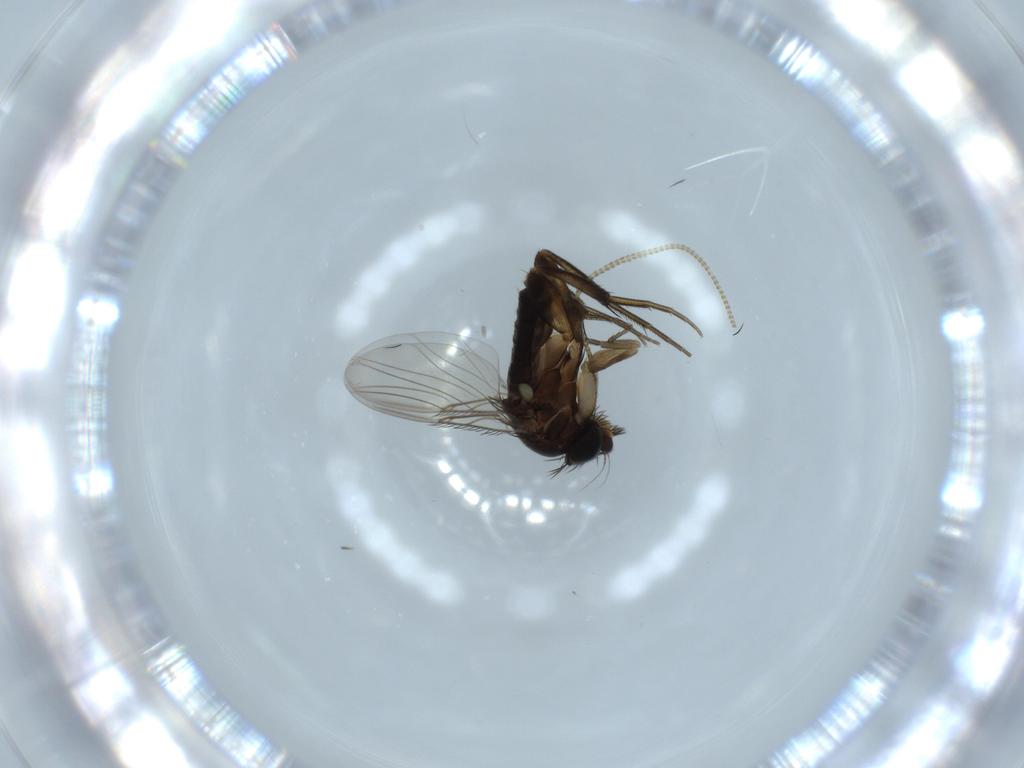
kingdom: Animalia
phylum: Arthropoda
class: Insecta
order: Diptera
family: Phoridae
